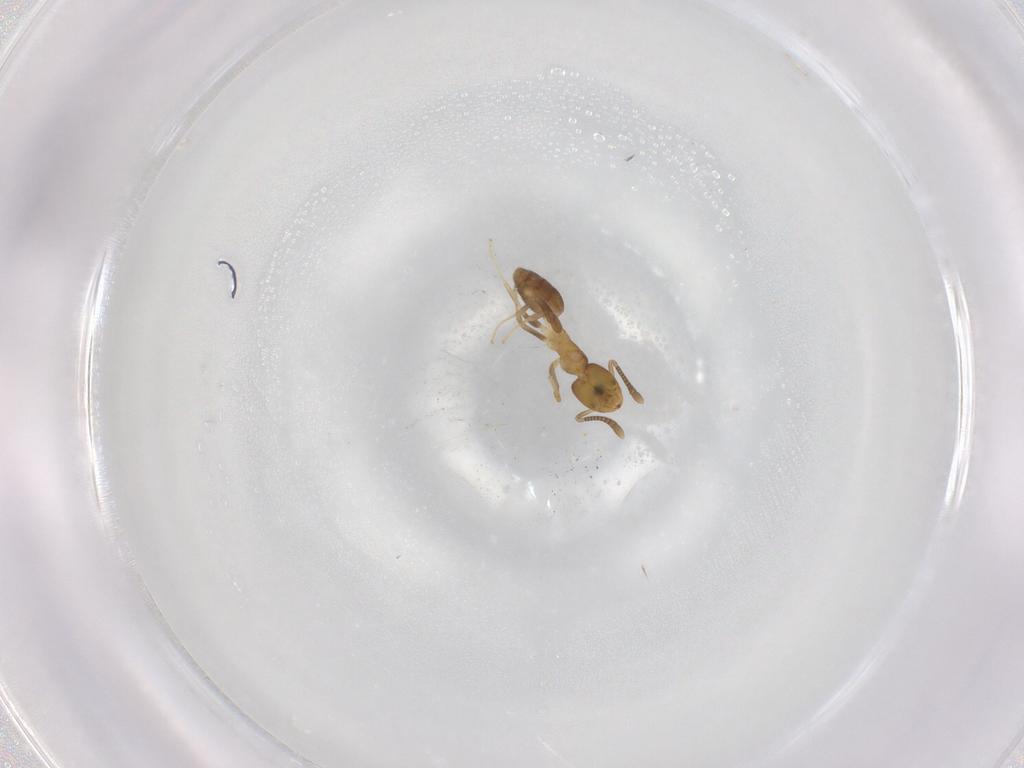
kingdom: Animalia
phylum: Arthropoda
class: Insecta
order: Hymenoptera
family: Formicidae
